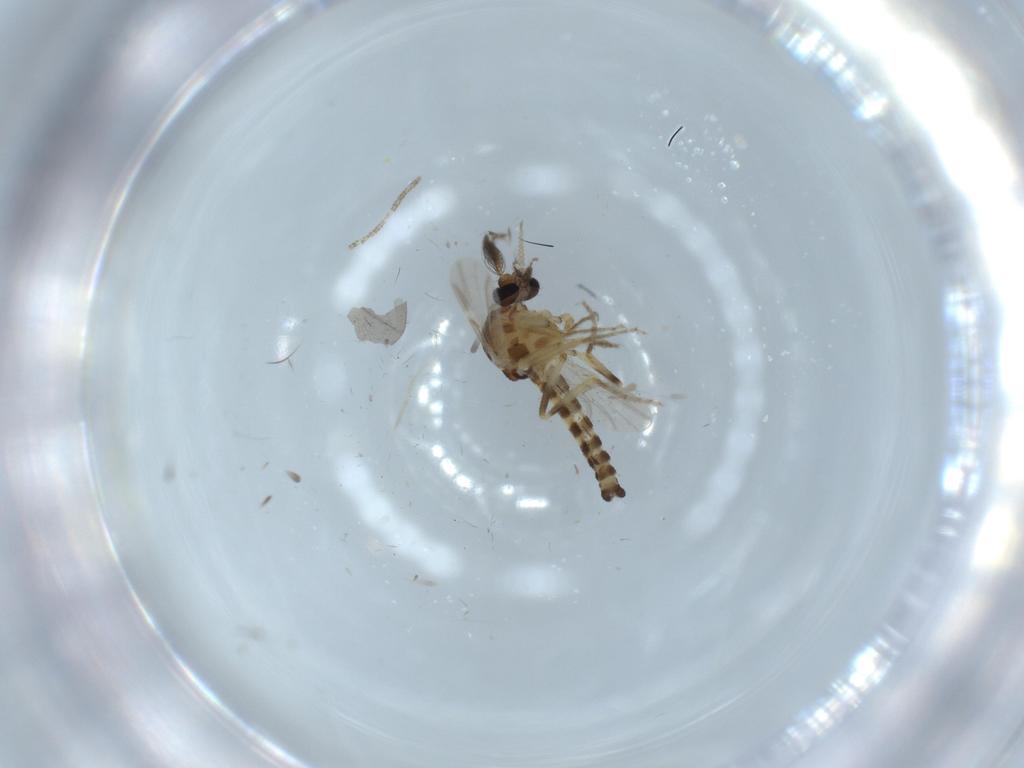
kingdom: Animalia
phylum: Arthropoda
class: Insecta
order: Diptera
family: Ceratopogonidae
